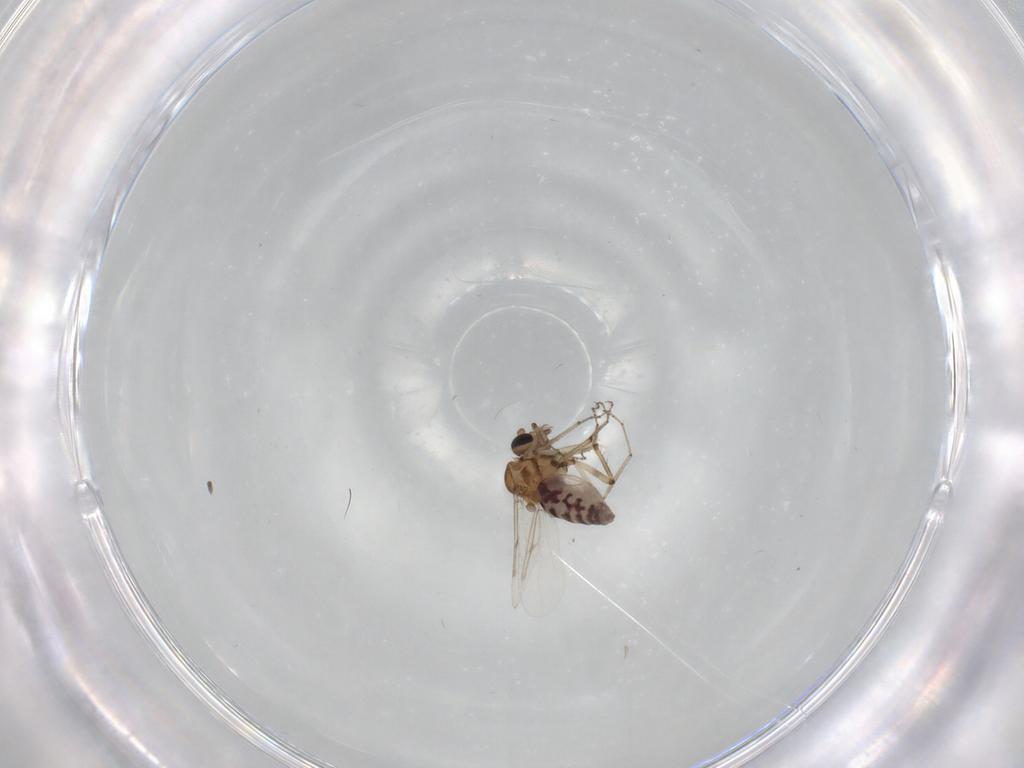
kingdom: Animalia
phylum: Arthropoda
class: Insecta
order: Diptera
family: Ceratopogonidae
